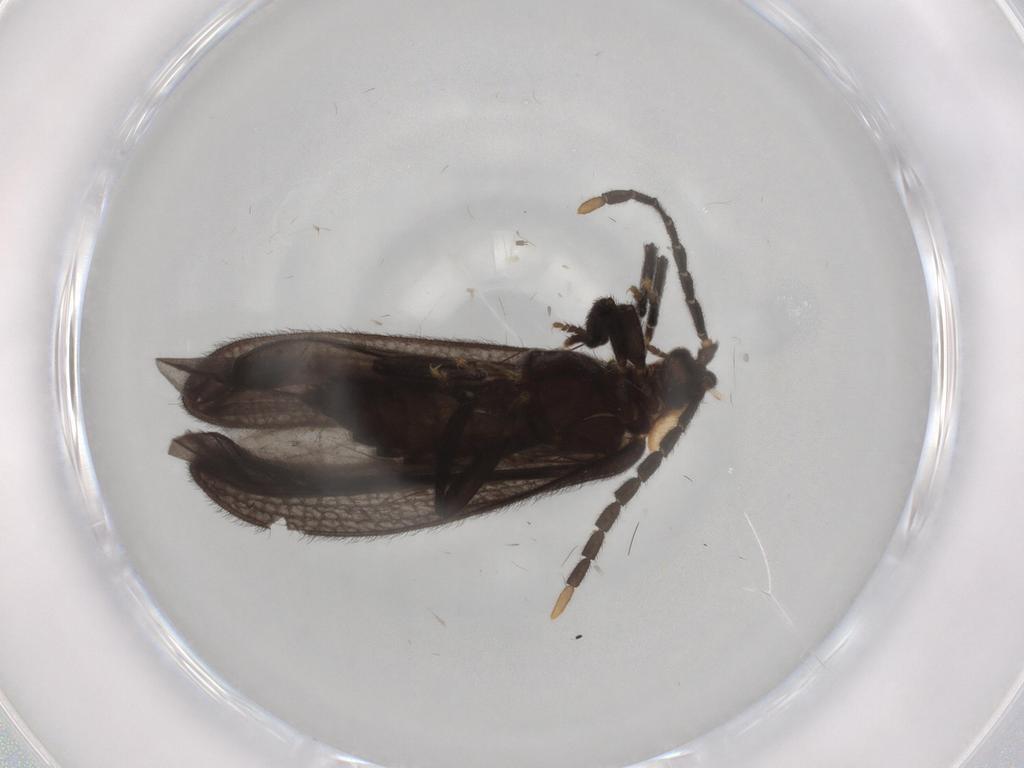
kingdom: Animalia
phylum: Arthropoda
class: Insecta
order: Coleoptera
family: Lycidae
